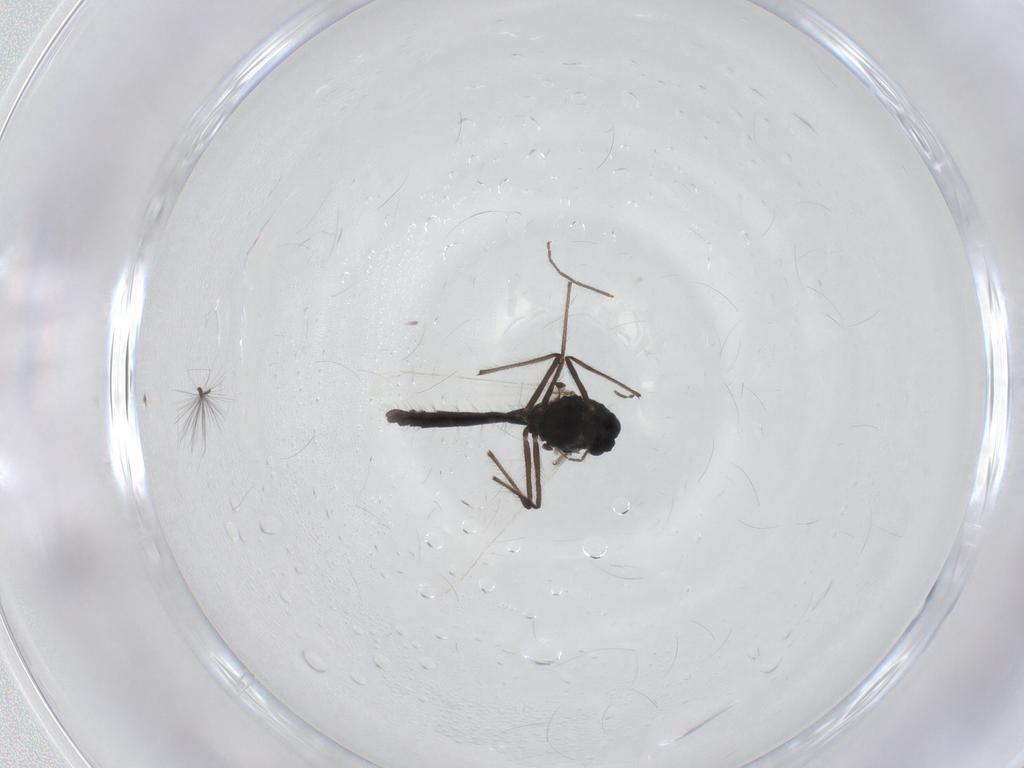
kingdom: Animalia
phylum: Arthropoda
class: Insecta
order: Diptera
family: Chironomidae
